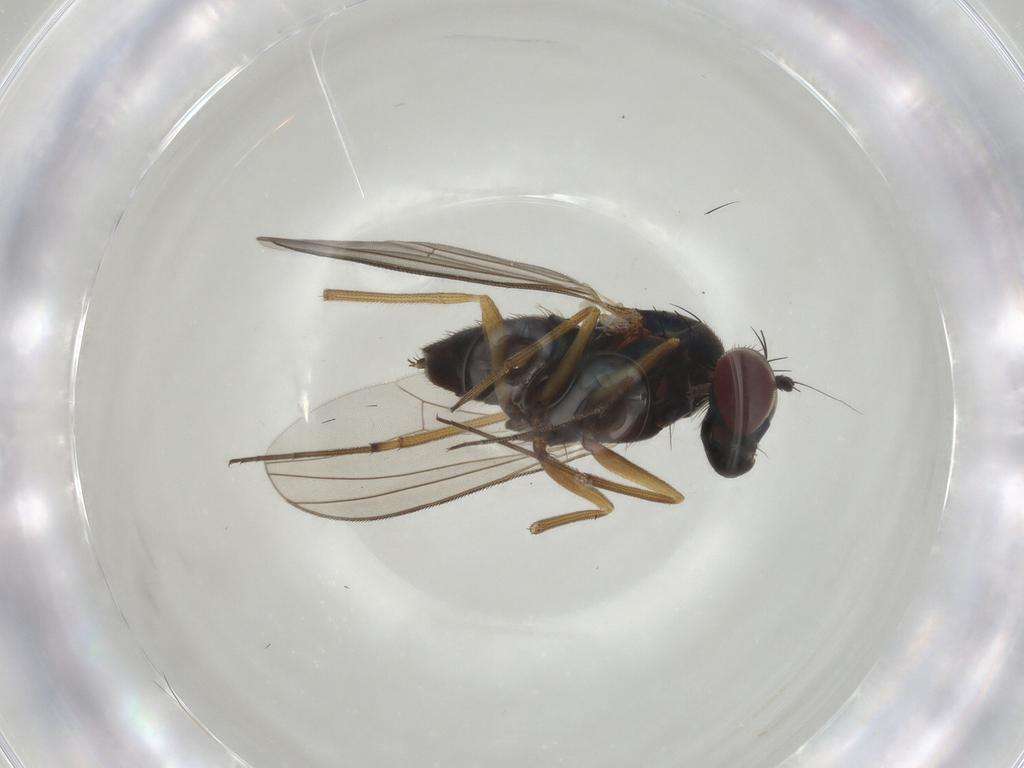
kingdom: Animalia
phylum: Arthropoda
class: Insecta
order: Diptera
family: Dolichopodidae
